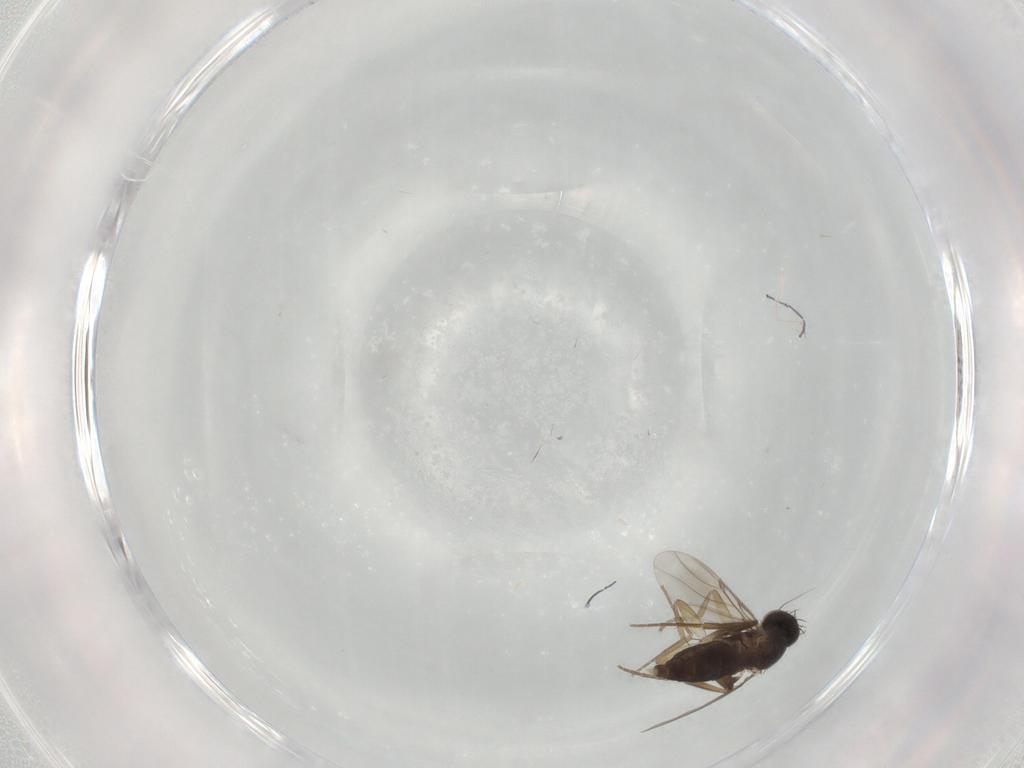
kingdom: Animalia
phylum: Arthropoda
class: Insecta
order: Diptera
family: Phoridae
